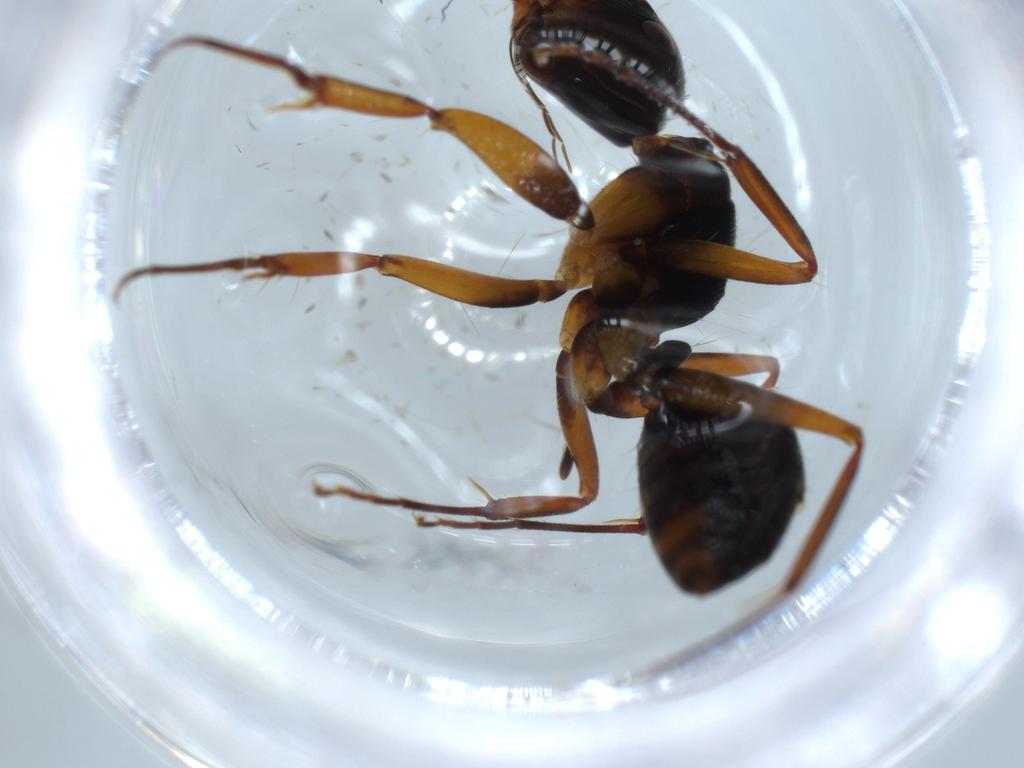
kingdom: Animalia
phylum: Arthropoda
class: Insecta
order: Hymenoptera
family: Formicidae
